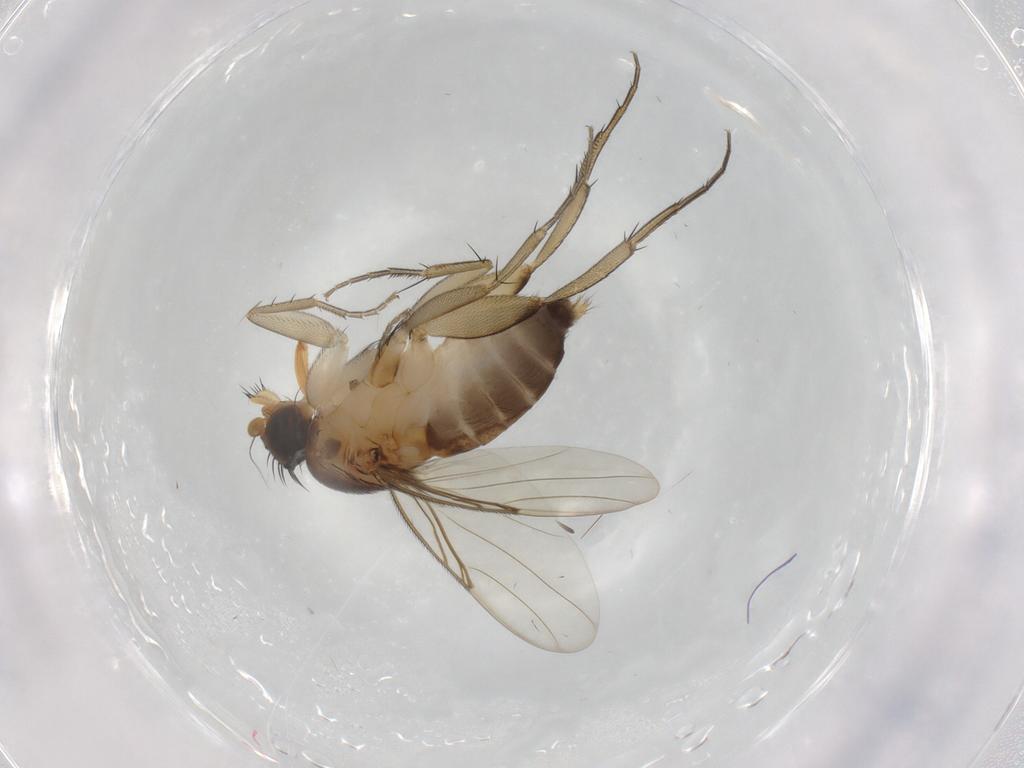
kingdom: Animalia
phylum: Arthropoda
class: Insecta
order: Diptera
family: Phoridae
